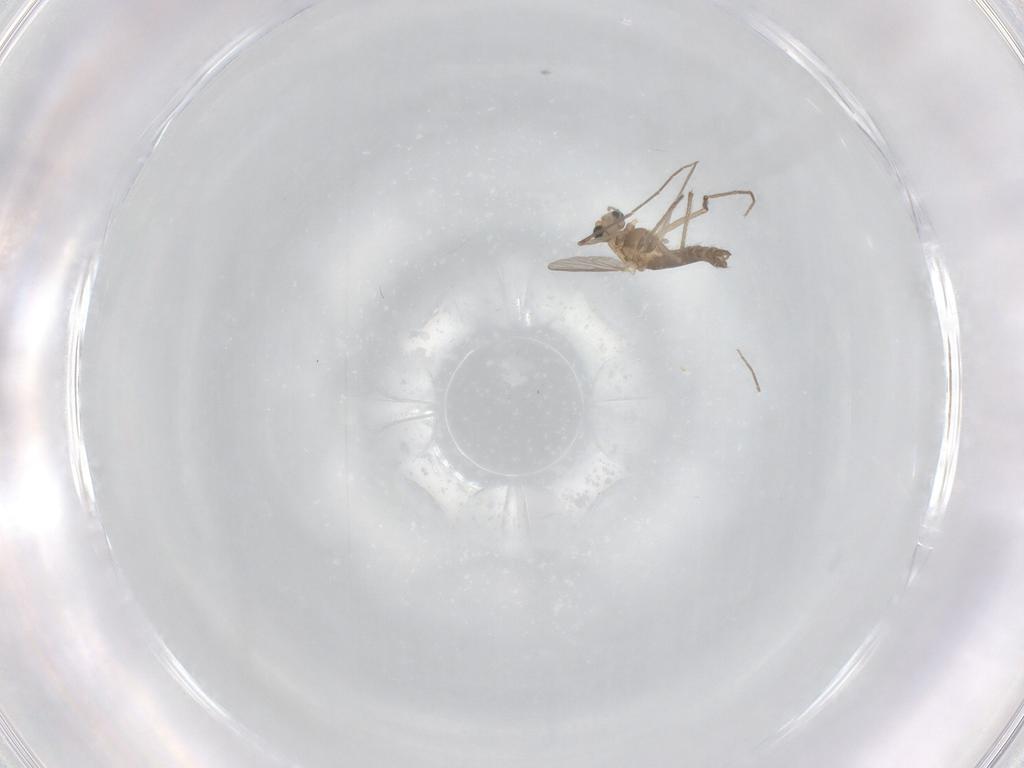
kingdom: Animalia
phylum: Arthropoda
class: Insecta
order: Diptera
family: Chironomidae
